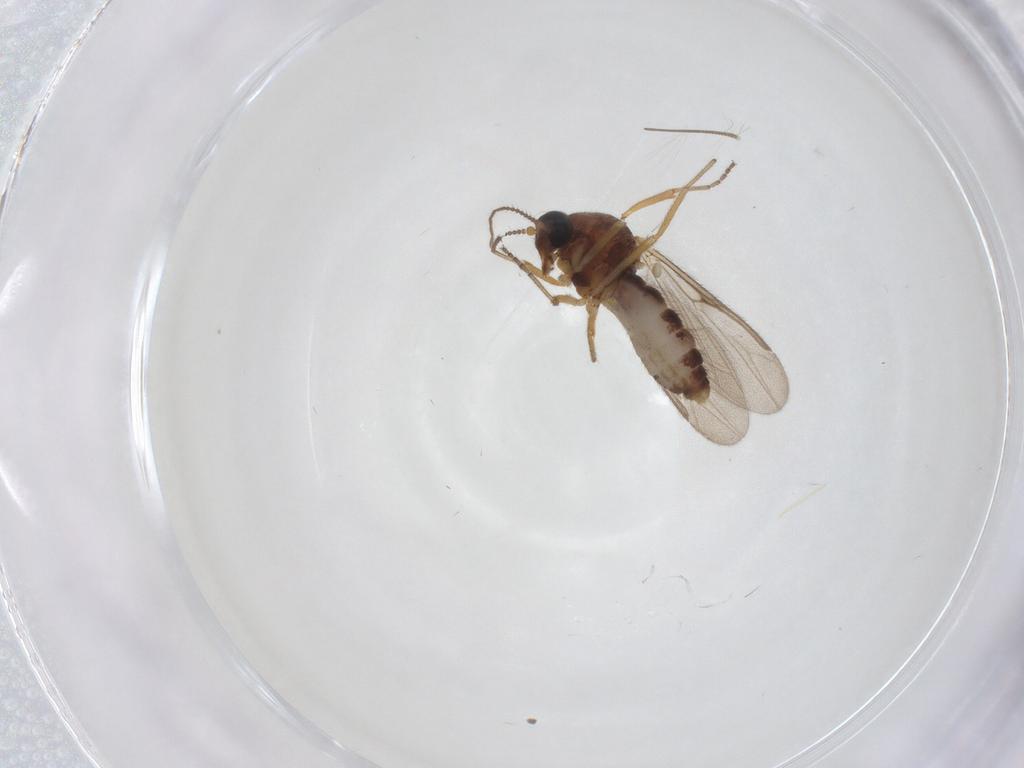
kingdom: Animalia
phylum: Arthropoda
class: Insecta
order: Diptera
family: Ceratopogonidae
